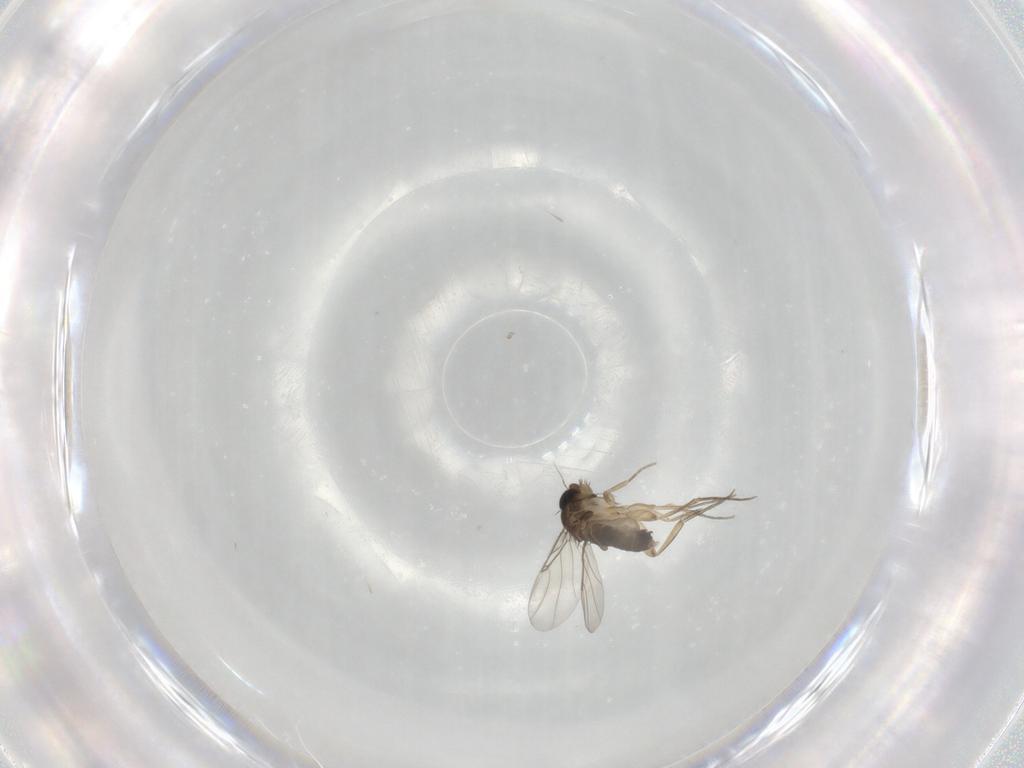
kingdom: Animalia
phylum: Arthropoda
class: Insecta
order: Diptera
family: Phoridae
